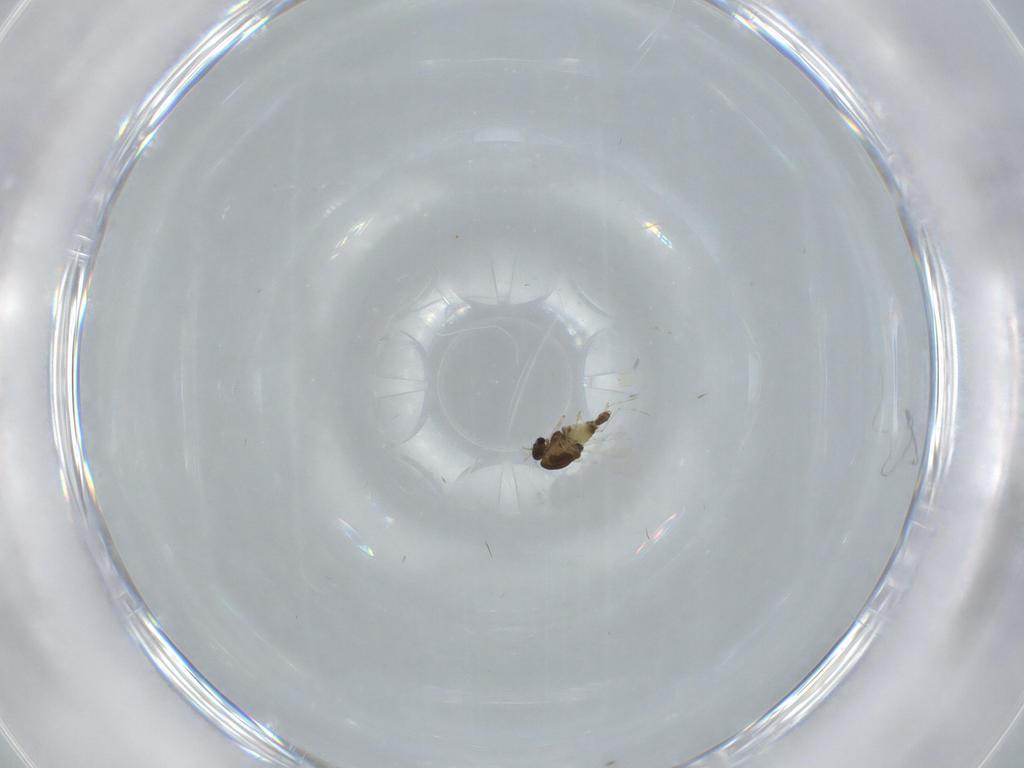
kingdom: Animalia
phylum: Arthropoda
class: Insecta
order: Diptera
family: Chironomidae
